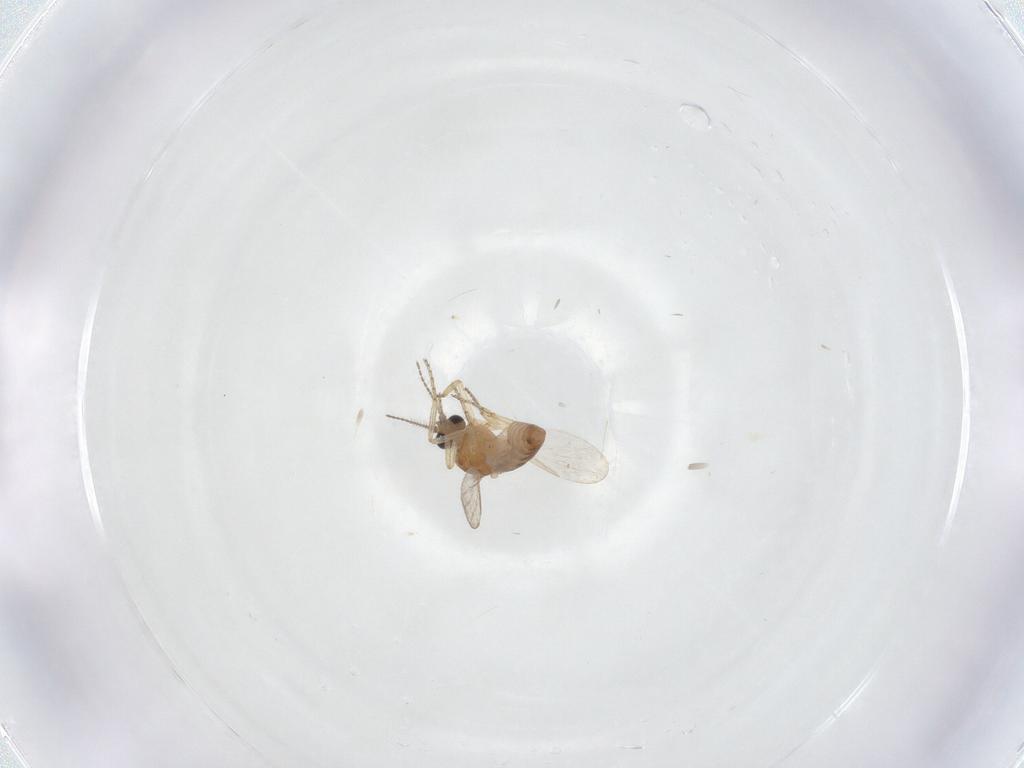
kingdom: Animalia
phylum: Arthropoda
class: Insecta
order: Diptera
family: Ceratopogonidae
